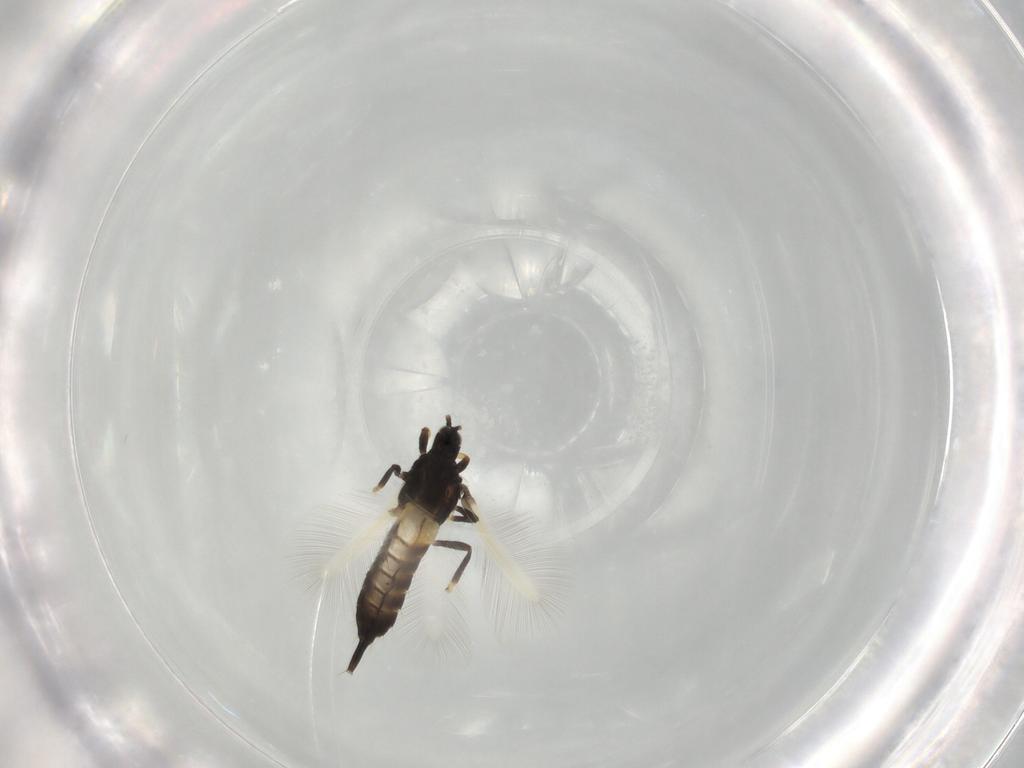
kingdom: Animalia
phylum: Arthropoda
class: Insecta
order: Thysanoptera
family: Phlaeothripidae
